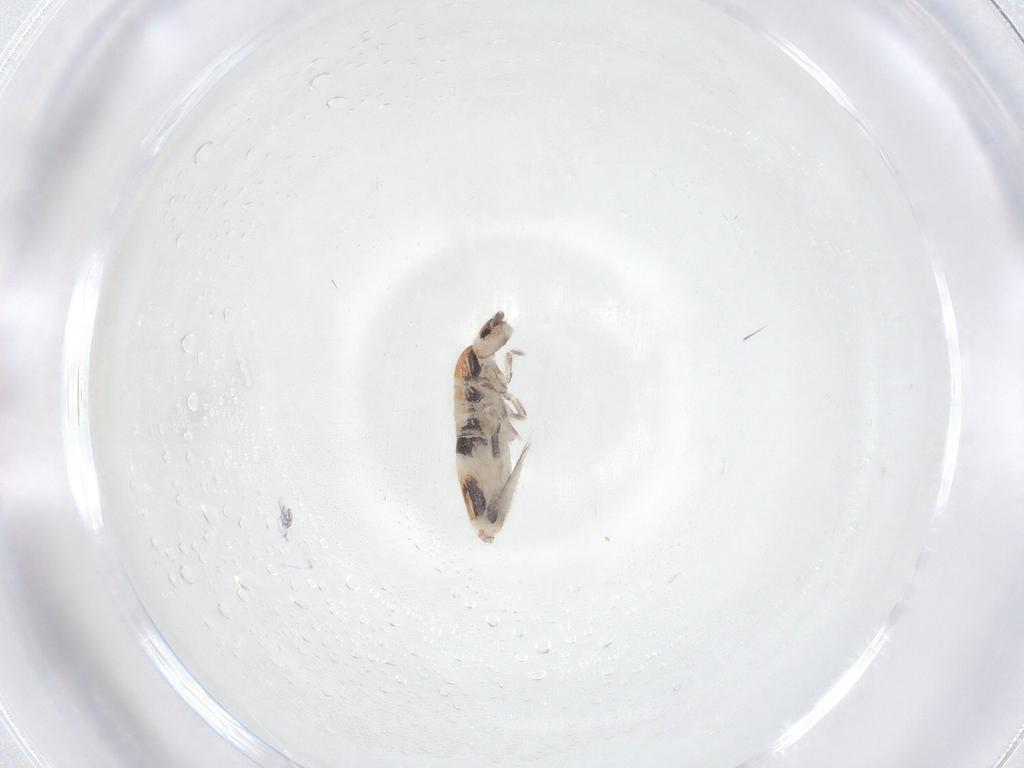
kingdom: Animalia
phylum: Arthropoda
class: Collembola
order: Entomobryomorpha
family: Entomobryidae
